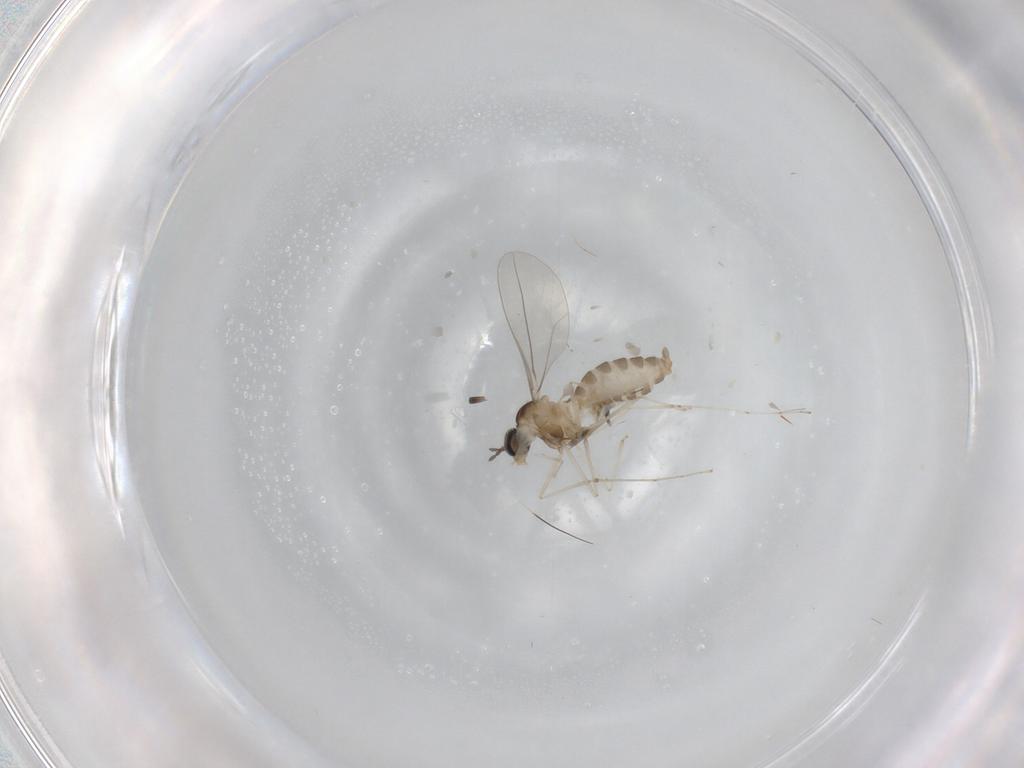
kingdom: Animalia
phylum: Arthropoda
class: Insecta
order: Diptera
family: Cecidomyiidae
